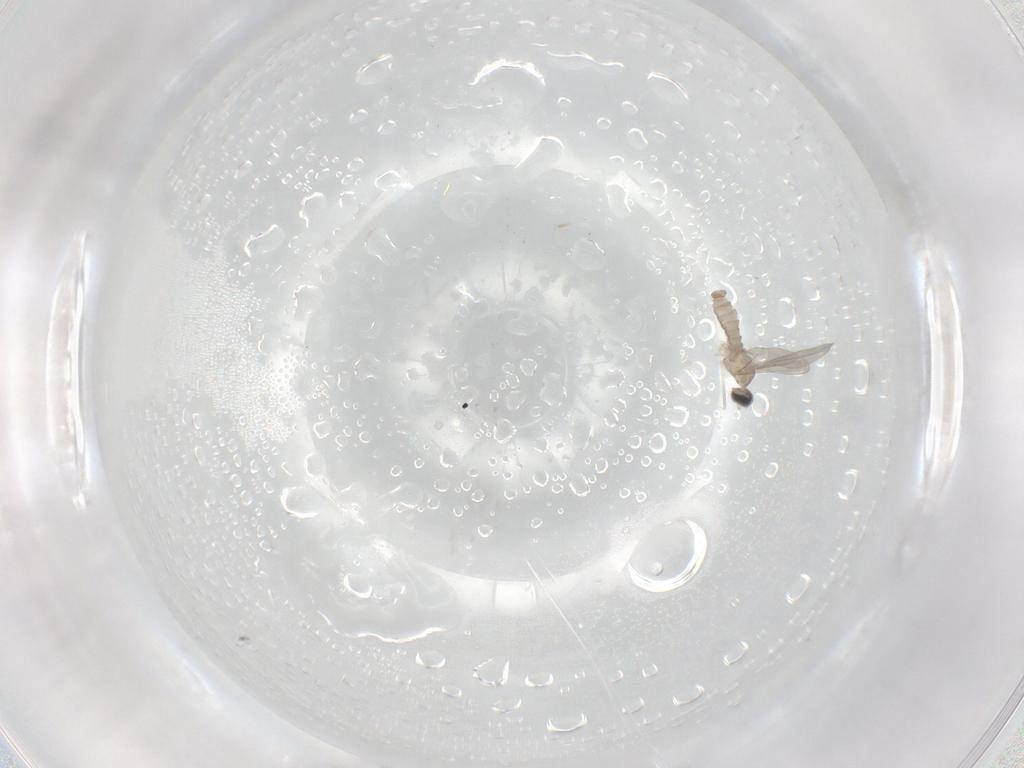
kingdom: Animalia
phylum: Arthropoda
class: Insecta
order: Diptera
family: Cecidomyiidae
